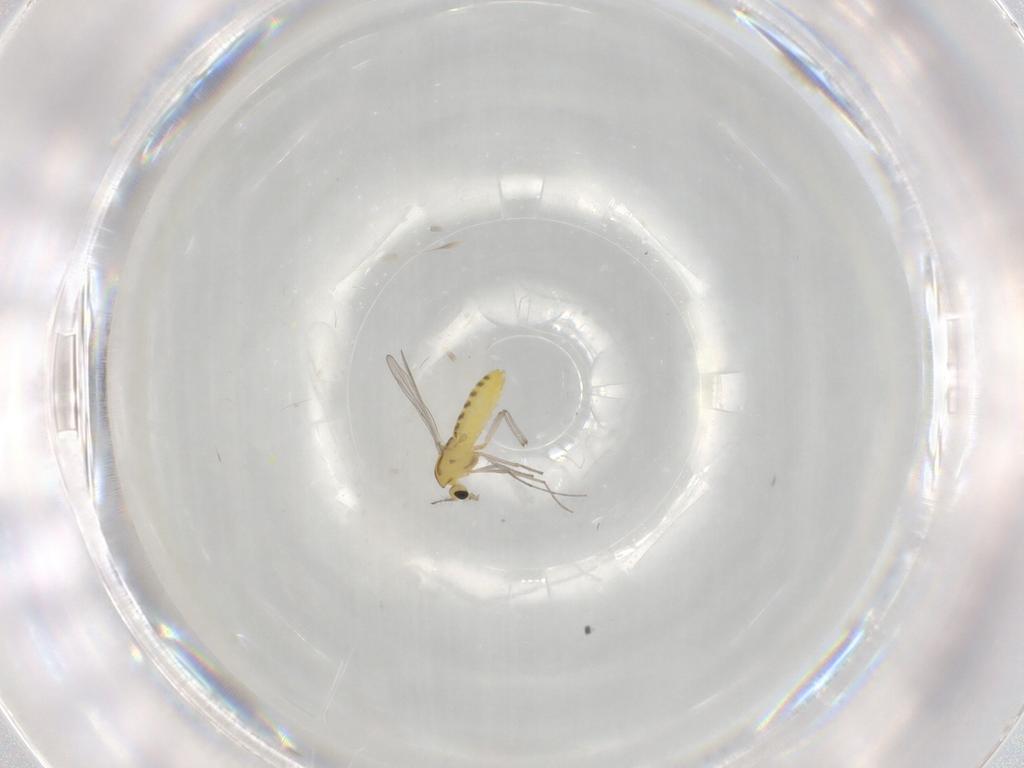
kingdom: Animalia
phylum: Arthropoda
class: Insecta
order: Diptera
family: Chironomidae
